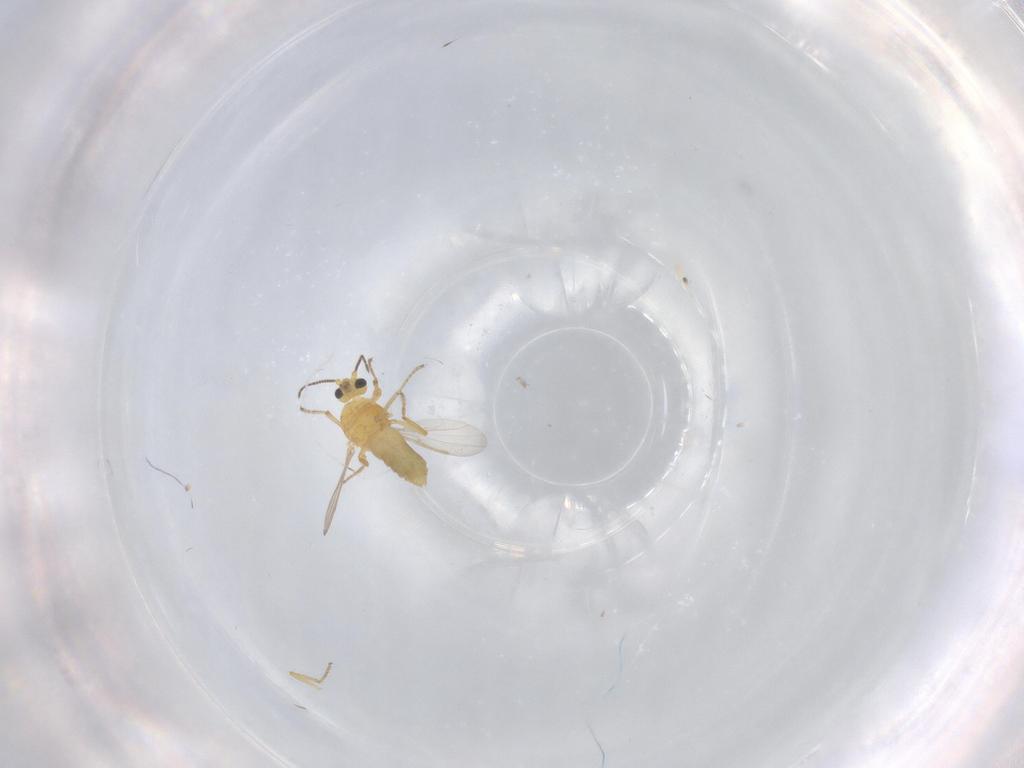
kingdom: Animalia
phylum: Arthropoda
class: Insecta
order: Diptera
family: Ceratopogonidae
